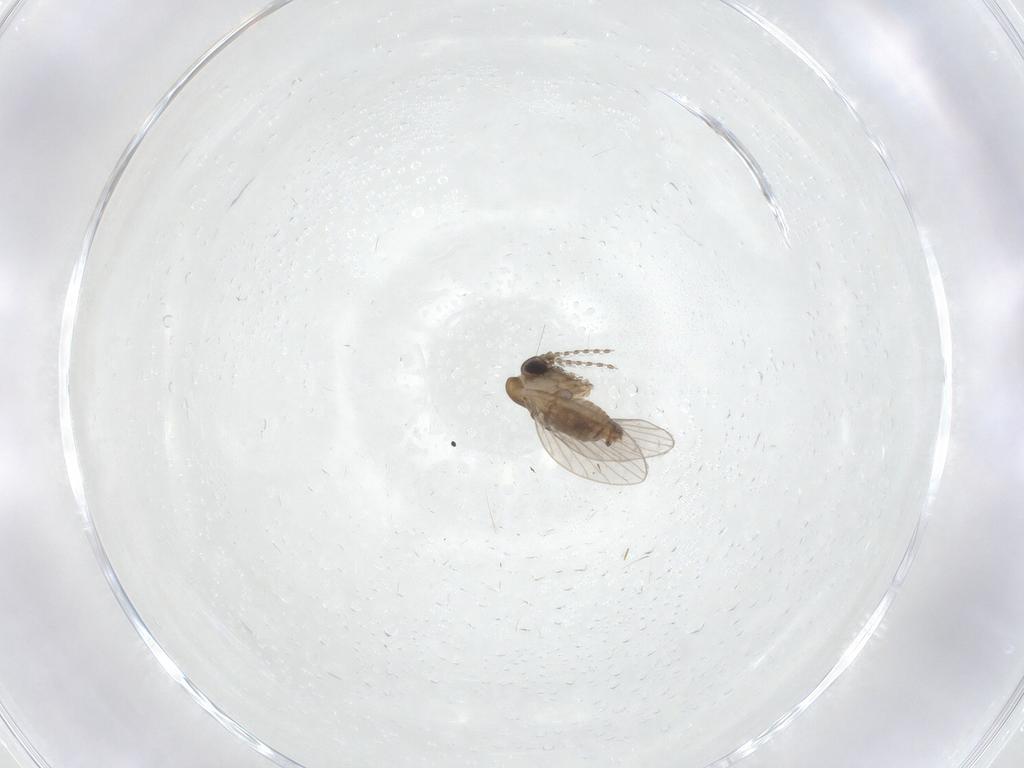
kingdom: Animalia
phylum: Arthropoda
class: Insecta
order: Diptera
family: Psychodidae
